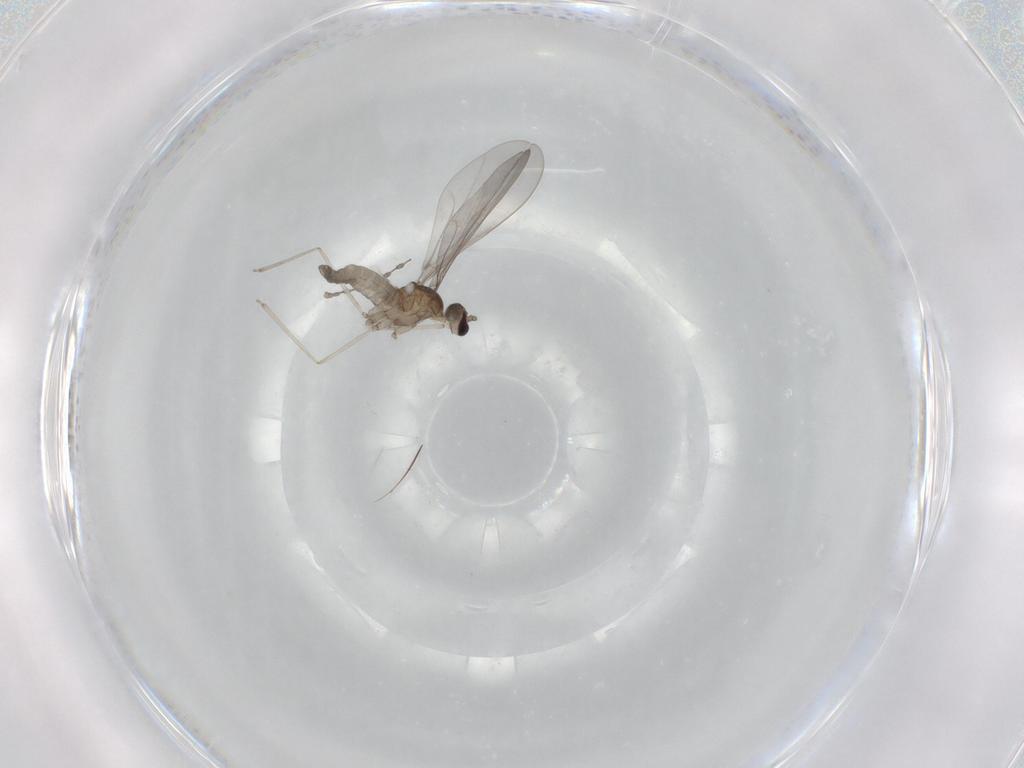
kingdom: Animalia
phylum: Arthropoda
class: Insecta
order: Diptera
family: Cecidomyiidae
